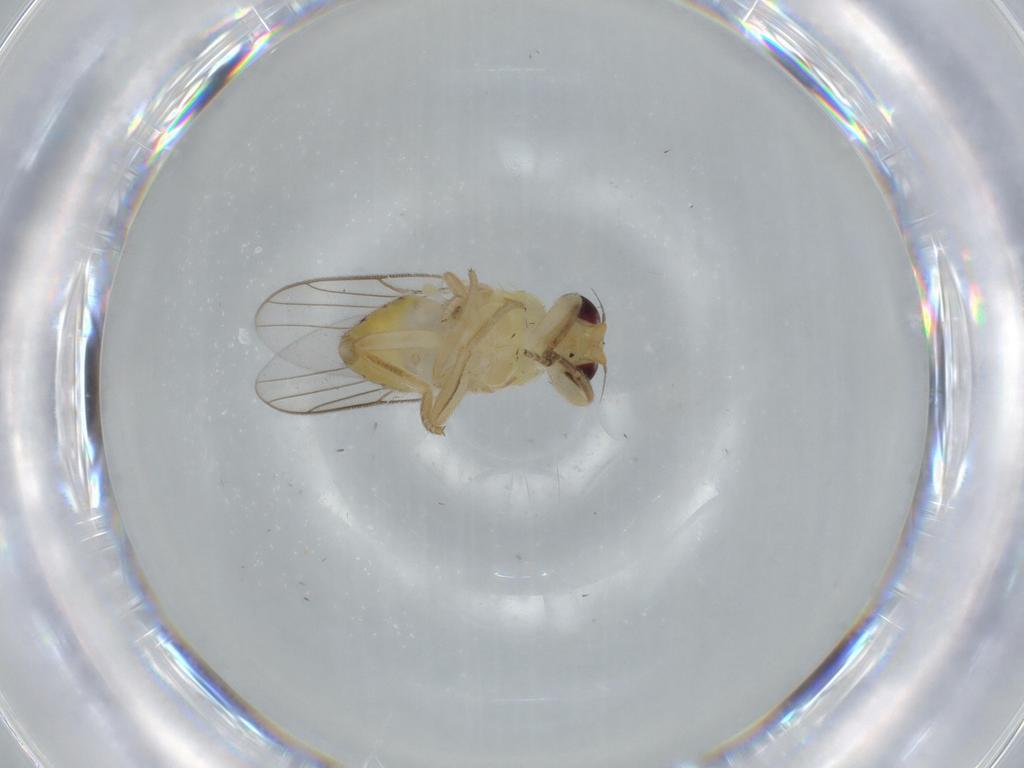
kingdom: Animalia
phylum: Arthropoda
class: Insecta
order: Diptera
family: Chloropidae
